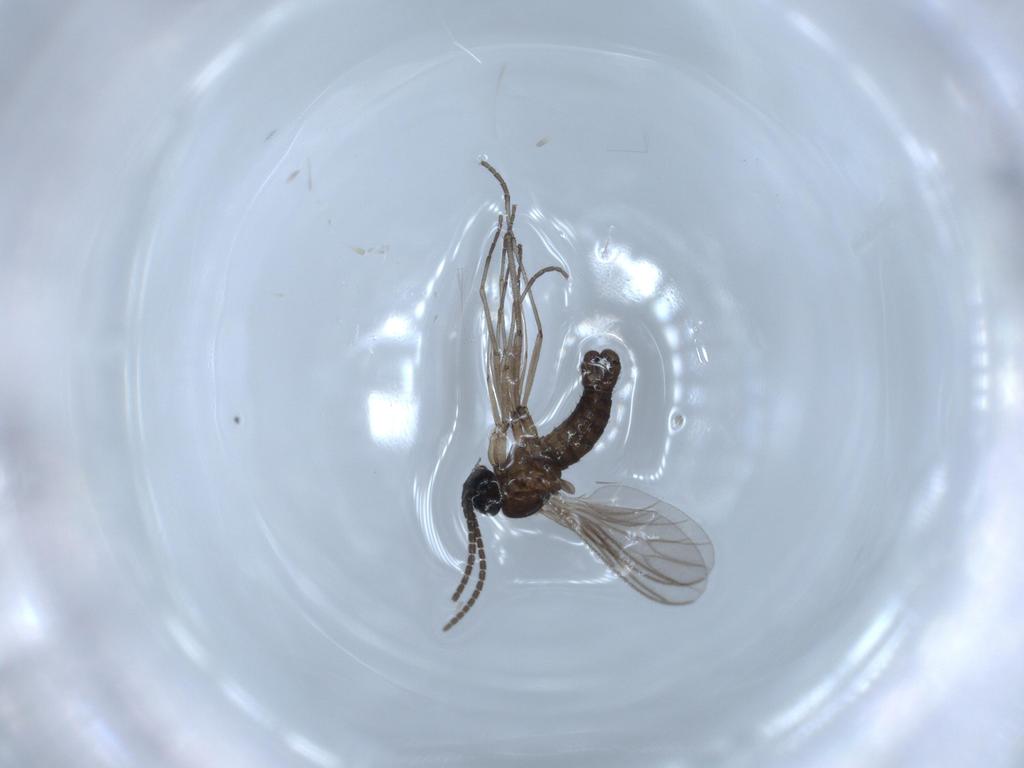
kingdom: Animalia
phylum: Arthropoda
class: Insecta
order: Diptera
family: Sciaridae
